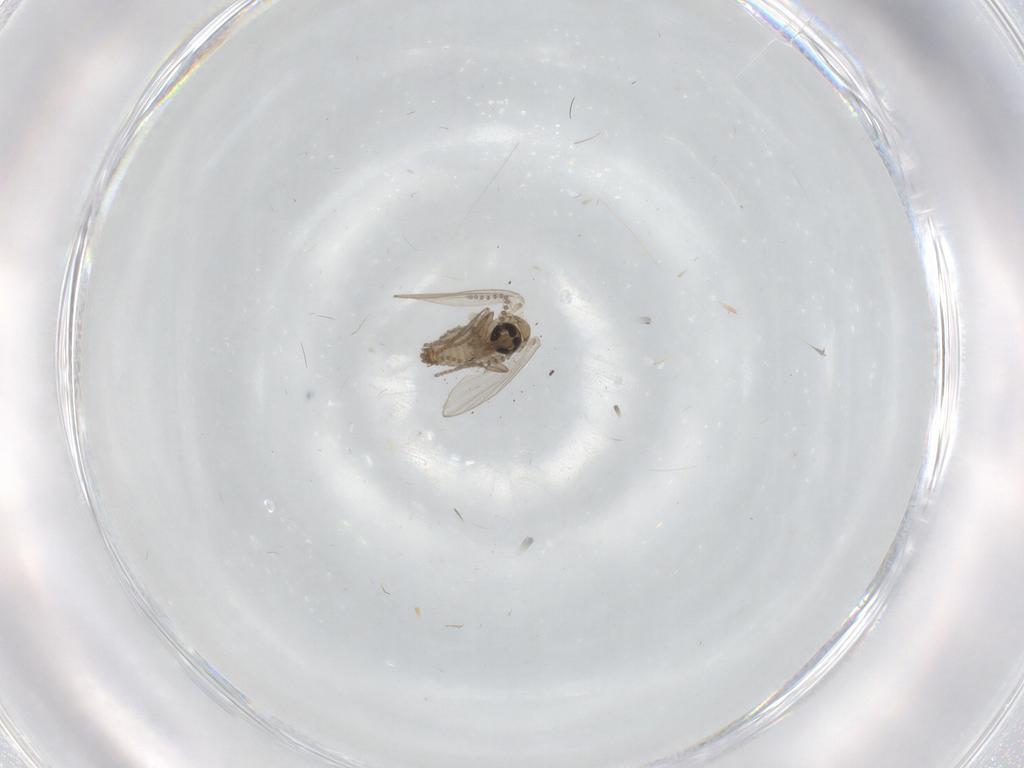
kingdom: Animalia
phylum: Arthropoda
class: Insecta
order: Diptera
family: Psychodidae
